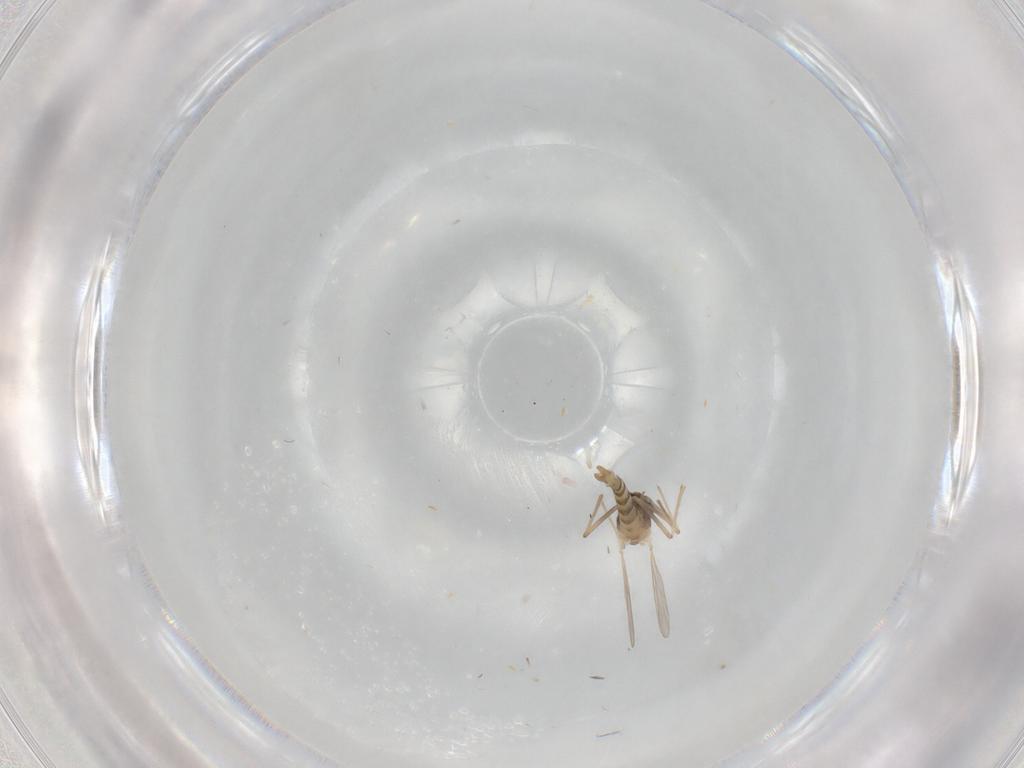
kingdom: Animalia
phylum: Arthropoda
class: Insecta
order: Diptera
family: Chironomidae
